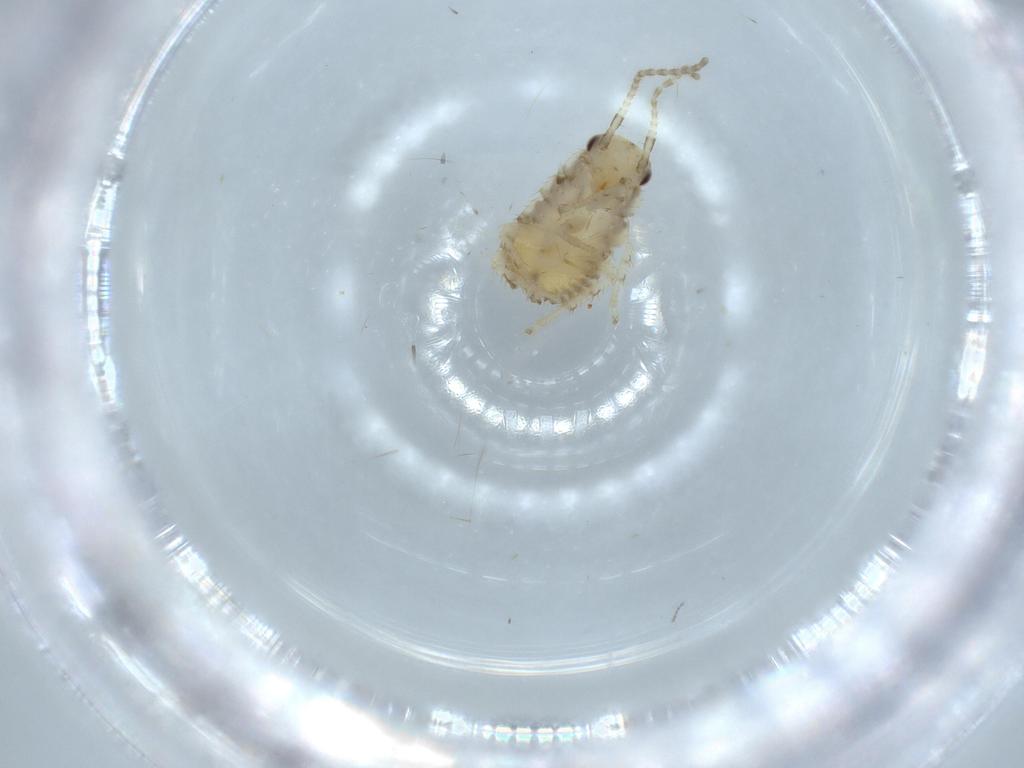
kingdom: Animalia
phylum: Arthropoda
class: Insecta
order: Blattodea
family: Ectobiidae
